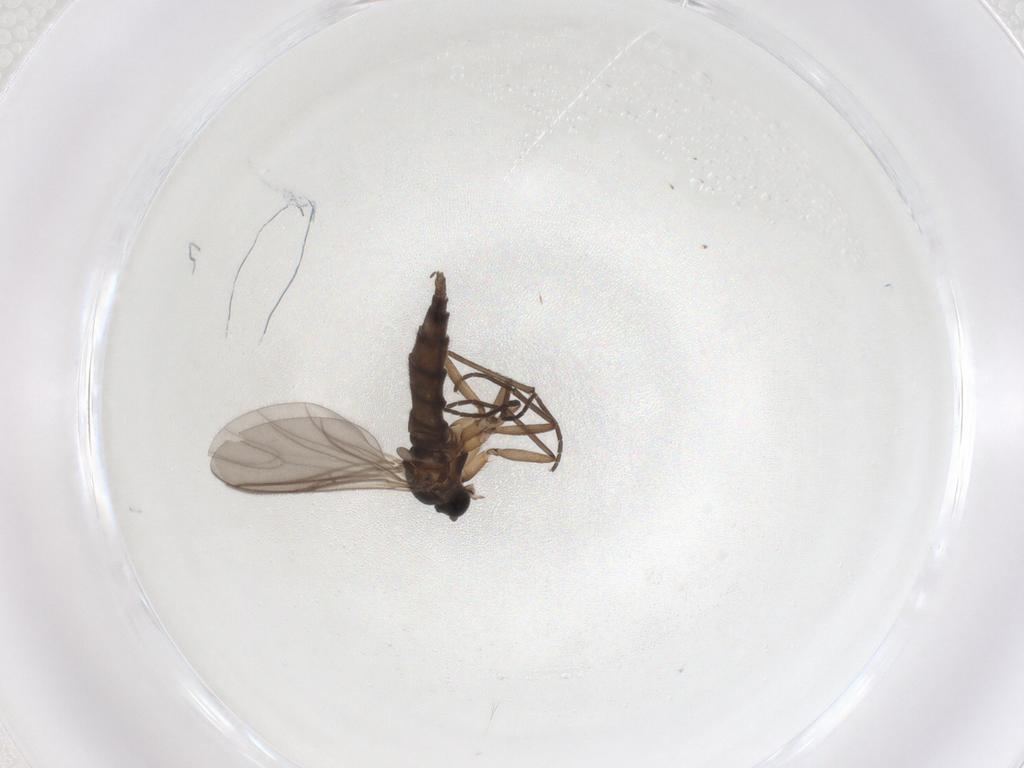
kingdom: Animalia
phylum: Arthropoda
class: Insecta
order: Diptera
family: Sciaridae
